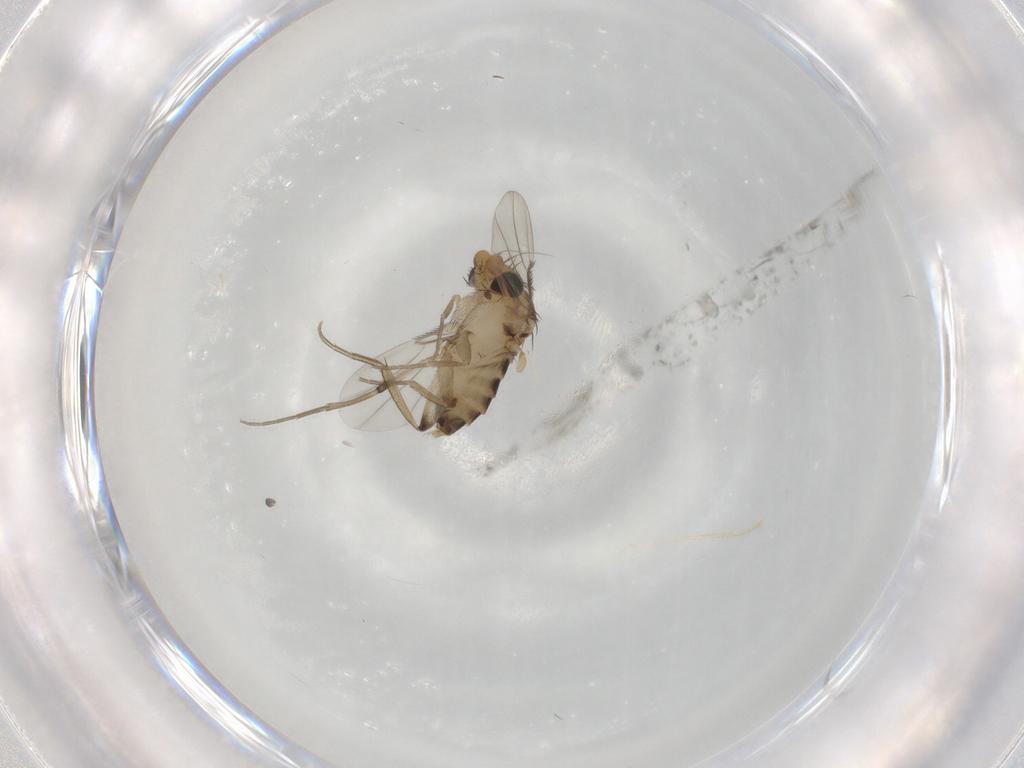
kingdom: Animalia
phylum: Arthropoda
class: Insecta
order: Diptera
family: Phoridae
